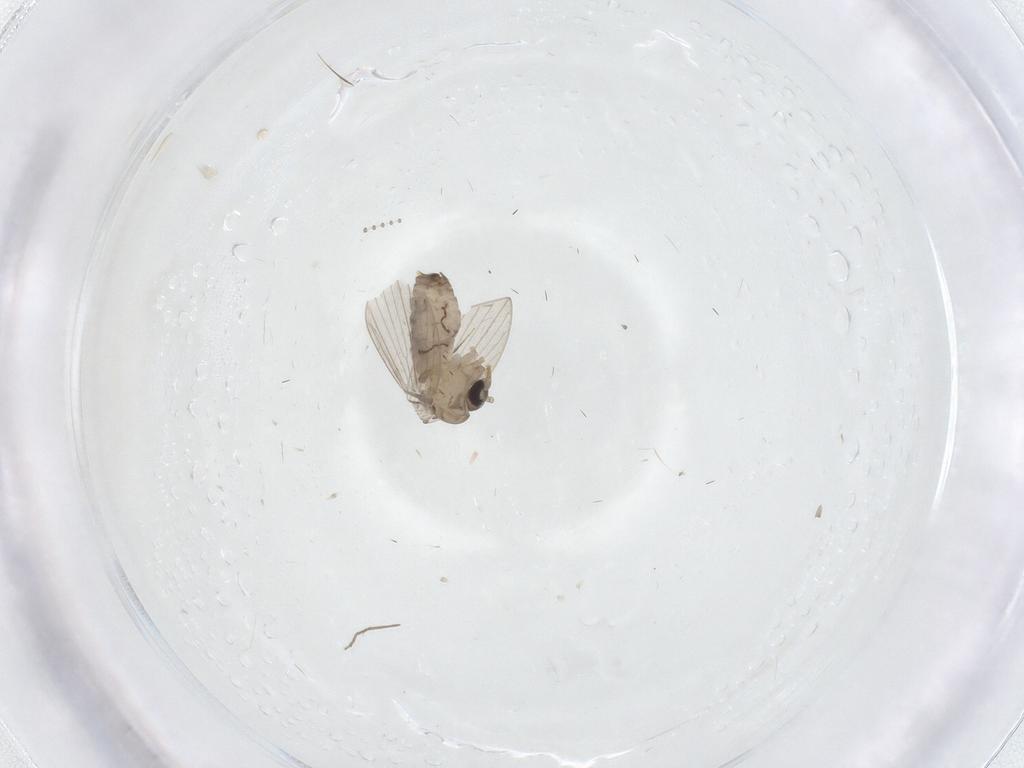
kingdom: Animalia
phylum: Arthropoda
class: Insecta
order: Diptera
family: Psychodidae
